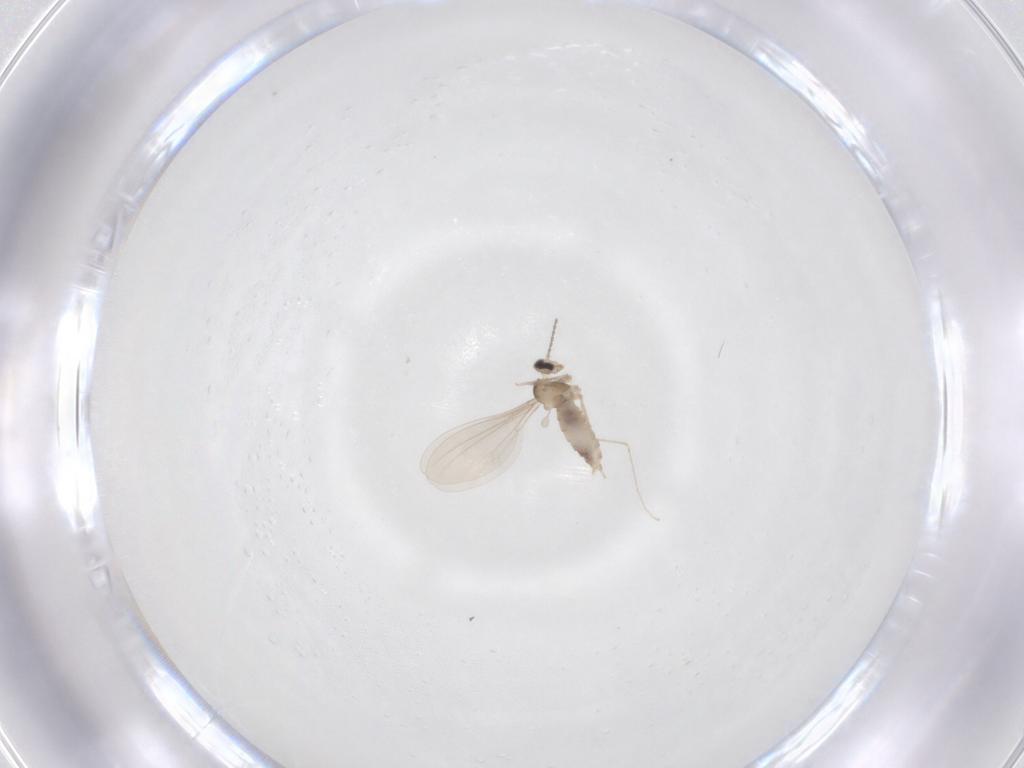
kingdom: Animalia
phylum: Arthropoda
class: Insecta
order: Diptera
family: Cecidomyiidae
